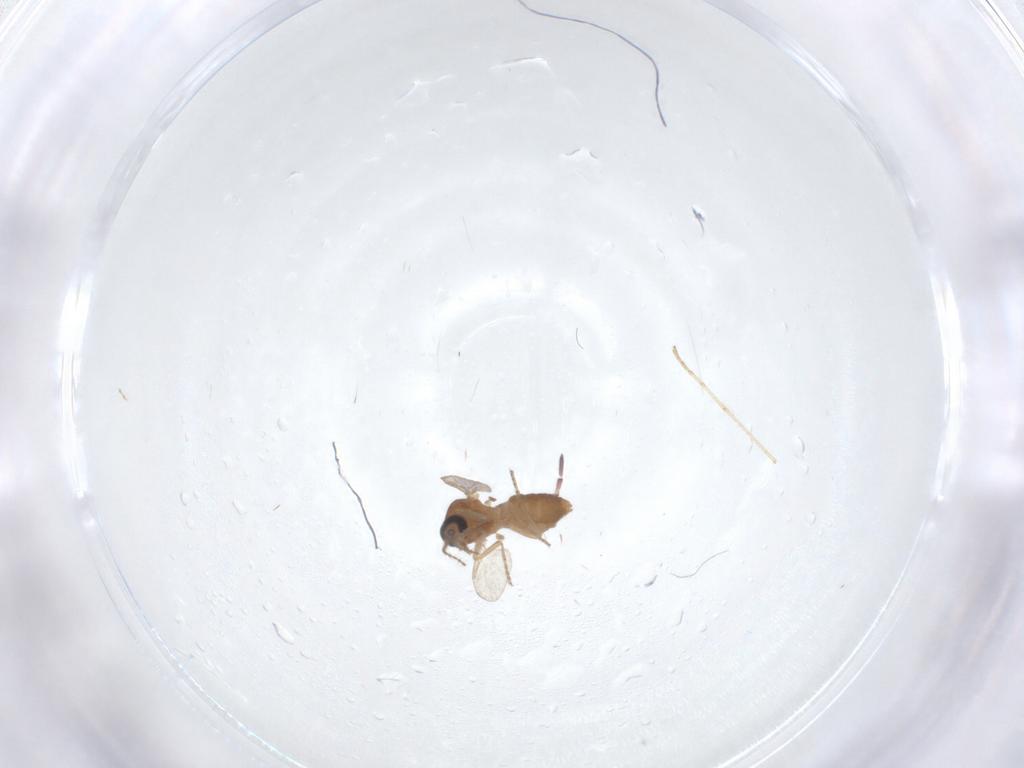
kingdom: Animalia
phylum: Arthropoda
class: Insecta
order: Diptera
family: Ceratopogonidae
